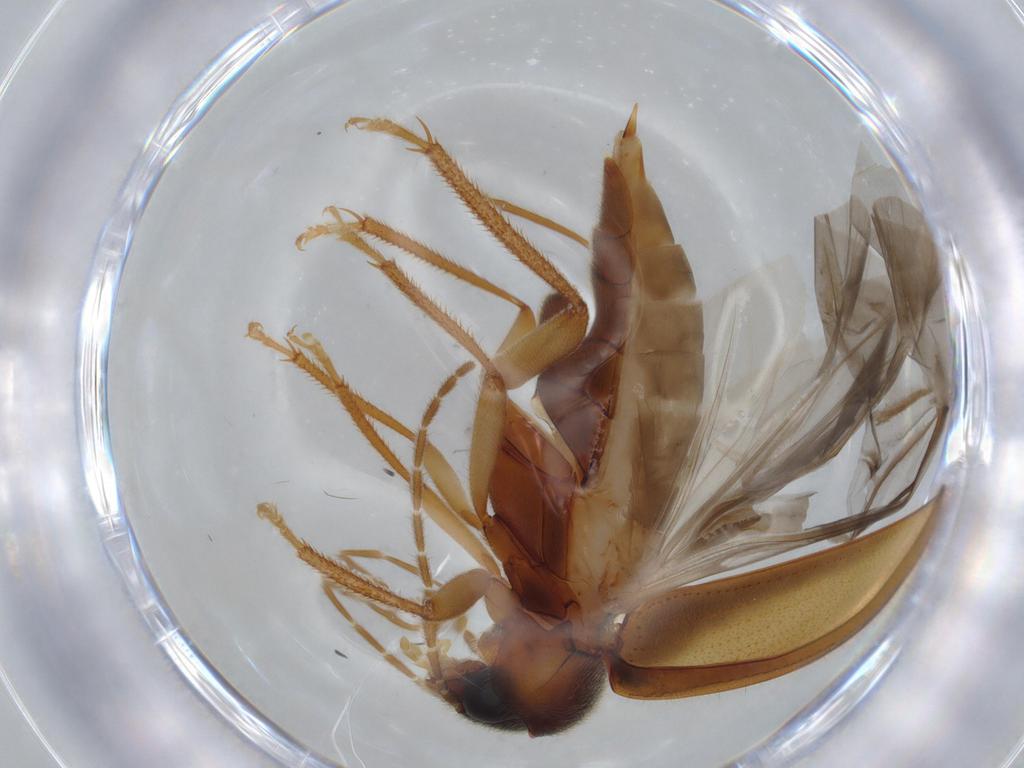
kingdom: Animalia
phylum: Arthropoda
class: Insecta
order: Coleoptera
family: Ptilodactylidae
